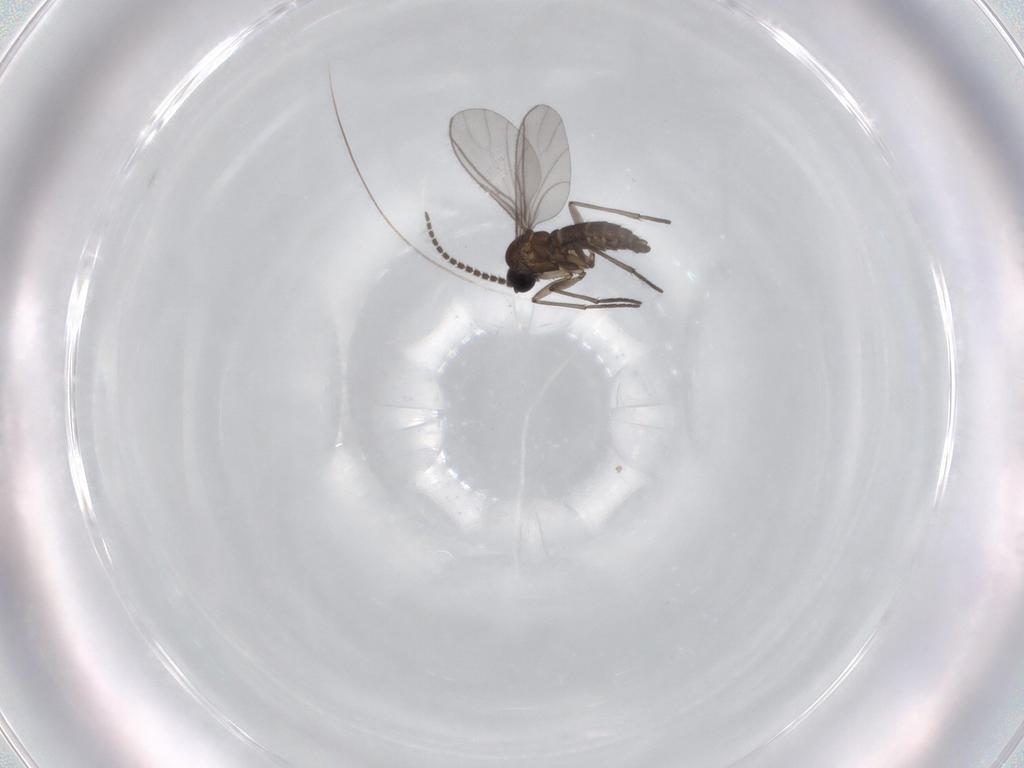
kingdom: Animalia
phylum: Arthropoda
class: Insecta
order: Diptera
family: Sciaridae
